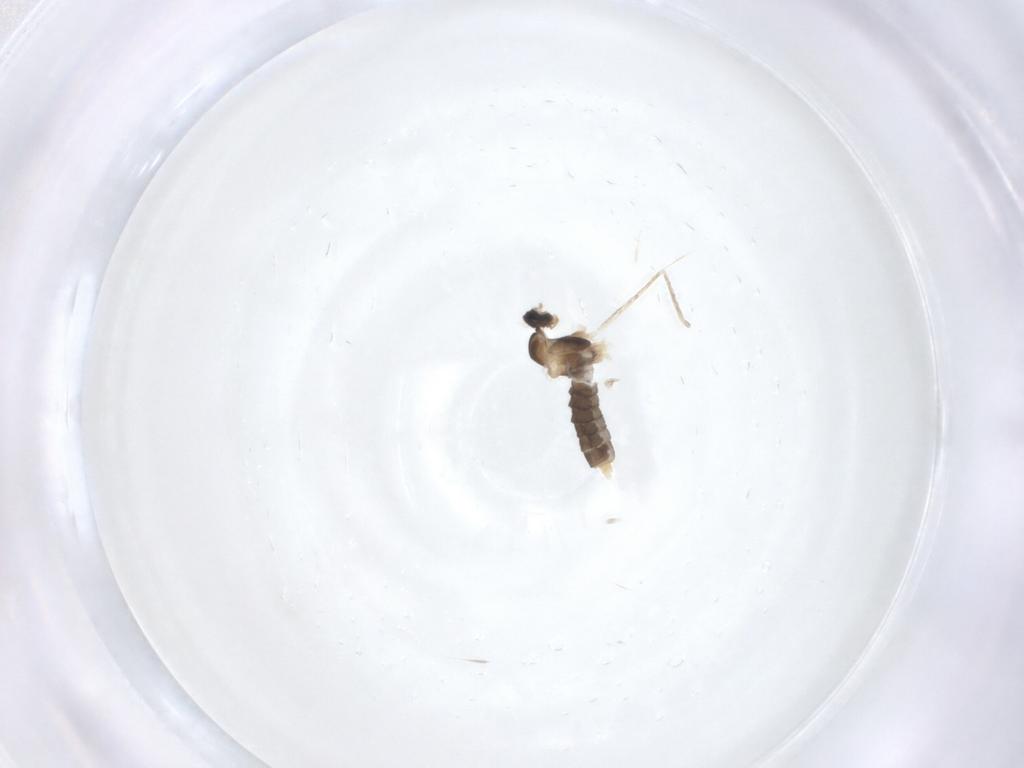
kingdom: Animalia
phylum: Arthropoda
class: Insecta
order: Diptera
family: Cecidomyiidae
